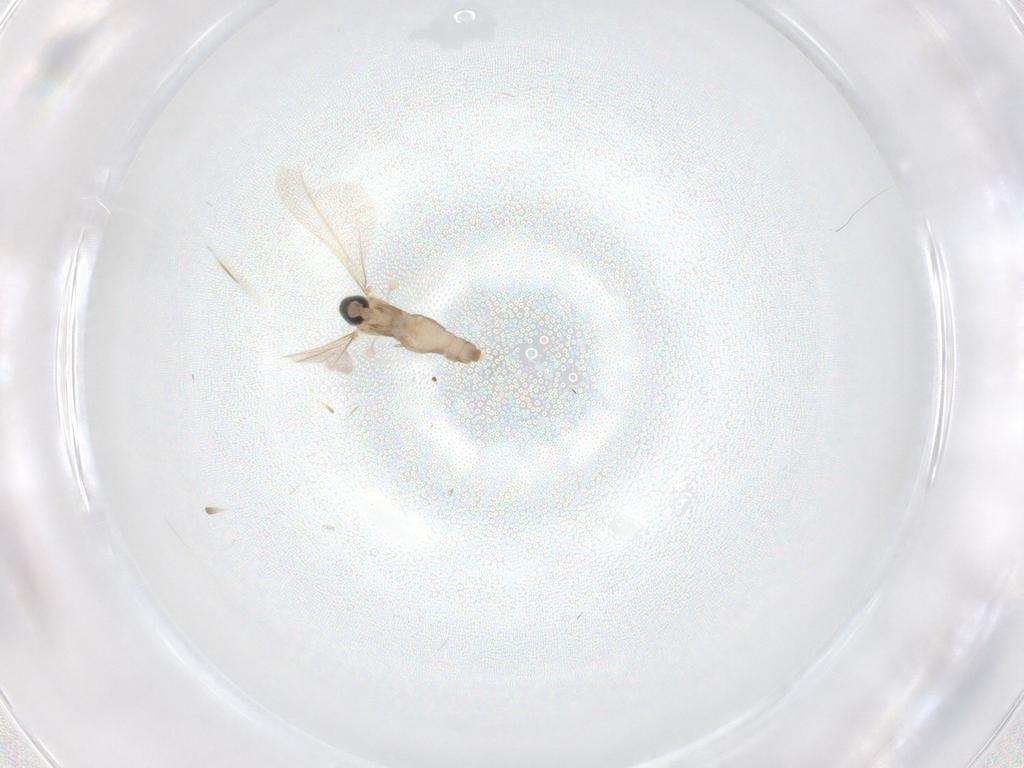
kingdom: Animalia
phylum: Arthropoda
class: Insecta
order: Diptera
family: Cecidomyiidae
